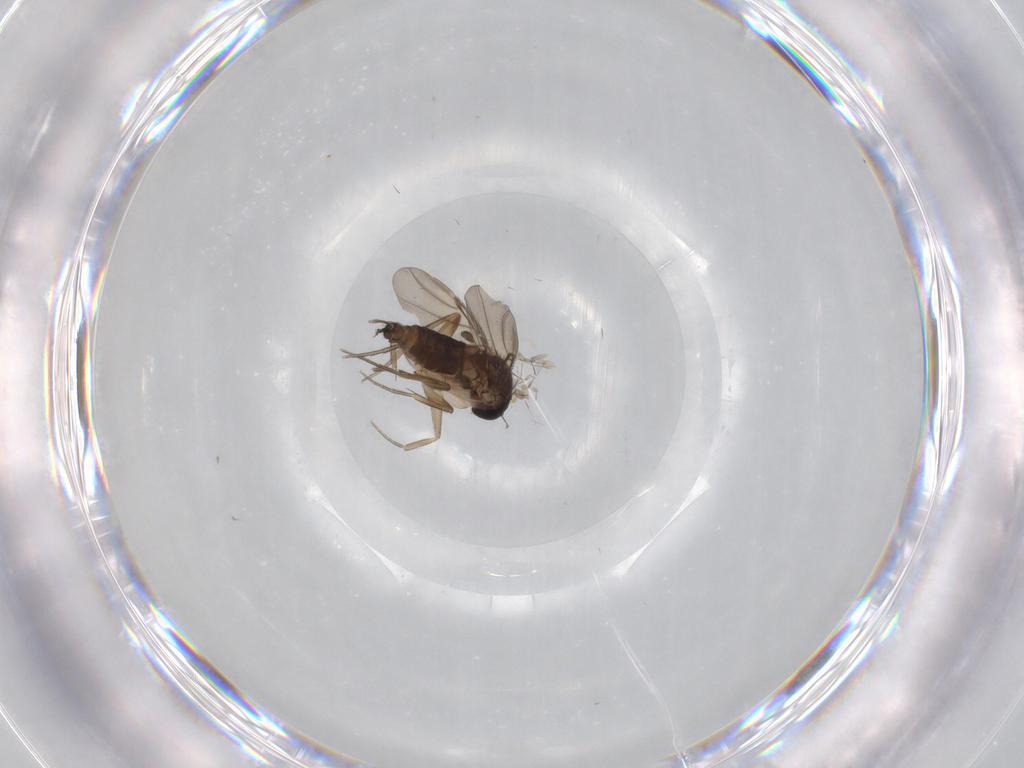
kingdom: Animalia
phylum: Arthropoda
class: Insecta
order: Diptera
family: Phoridae
